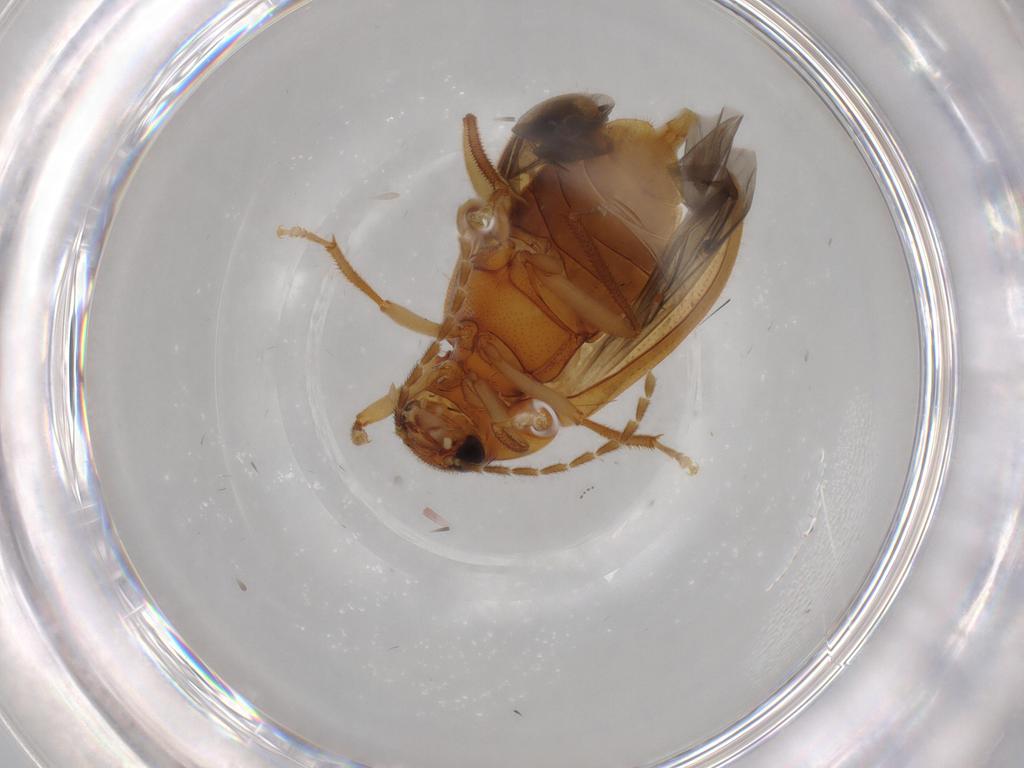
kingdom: Animalia
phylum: Arthropoda
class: Insecta
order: Coleoptera
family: Ptilodactylidae
